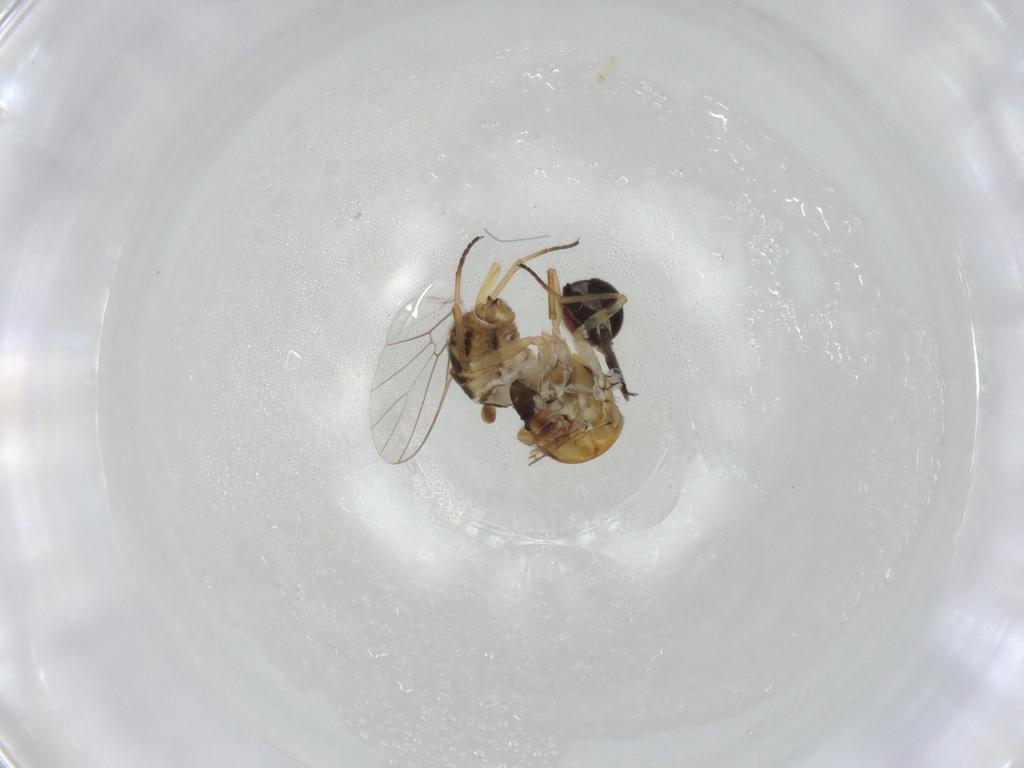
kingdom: Animalia
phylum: Arthropoda
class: Insecta
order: Diptera
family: Bombyliidae
